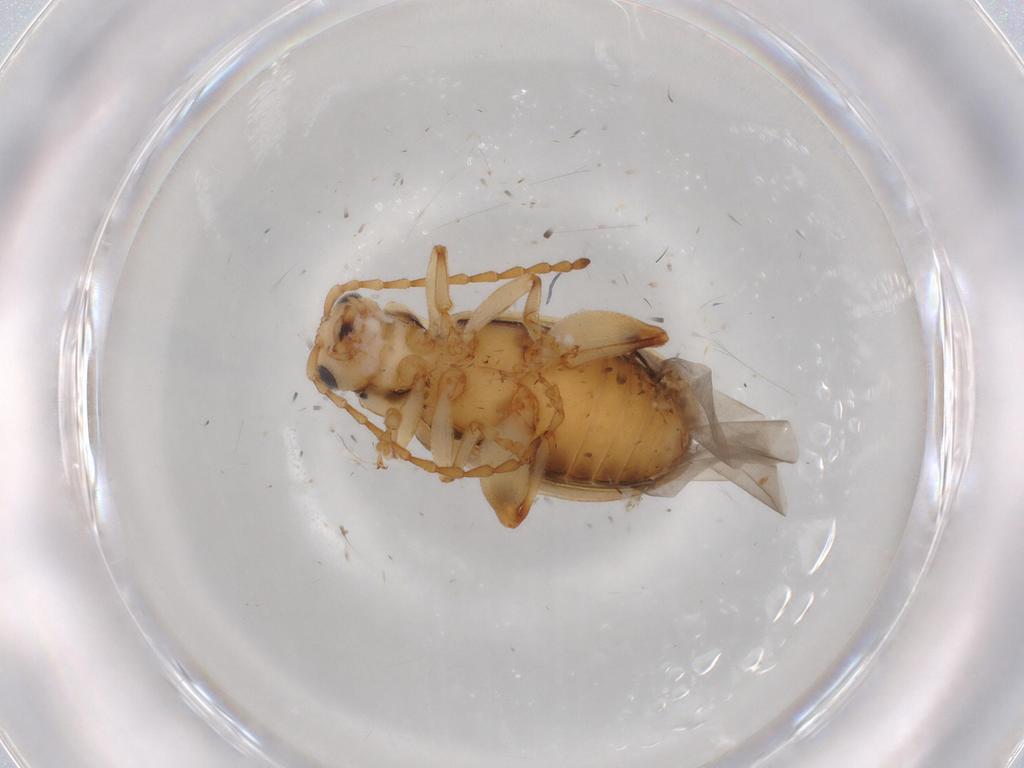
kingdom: Animalia
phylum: Arthropoda
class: Insecta
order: Coleoptera
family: Chrysomelidae
